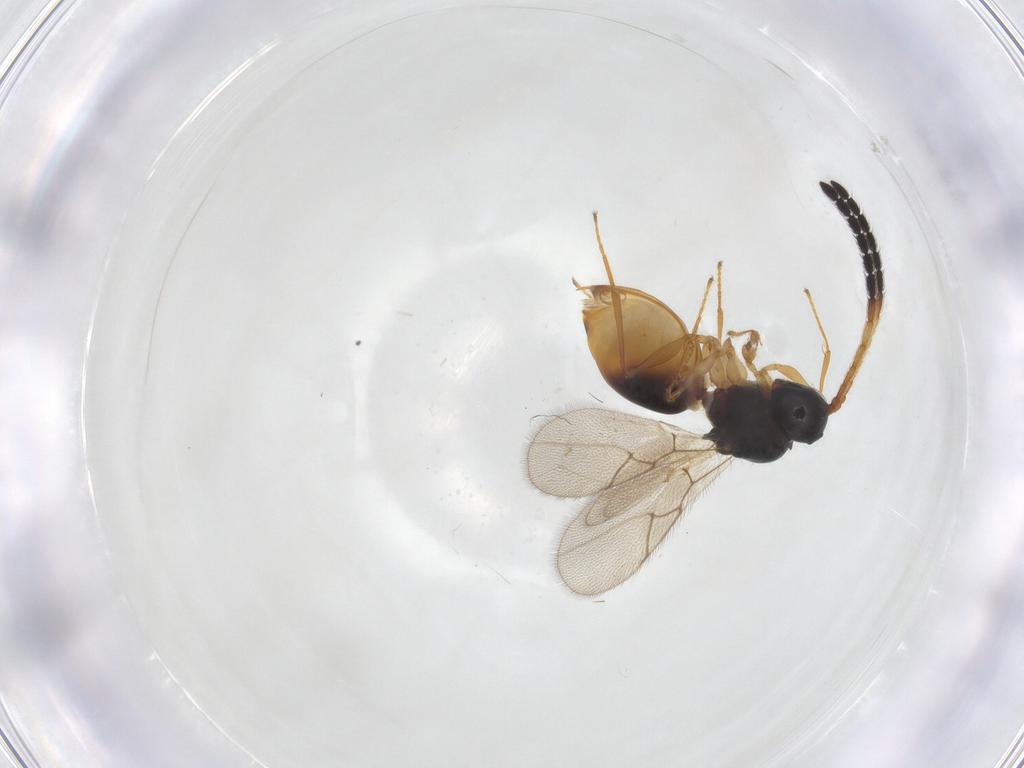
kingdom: Animalia
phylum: Arthropoda
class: Insecta
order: Hymenoptera
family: Figitidae
